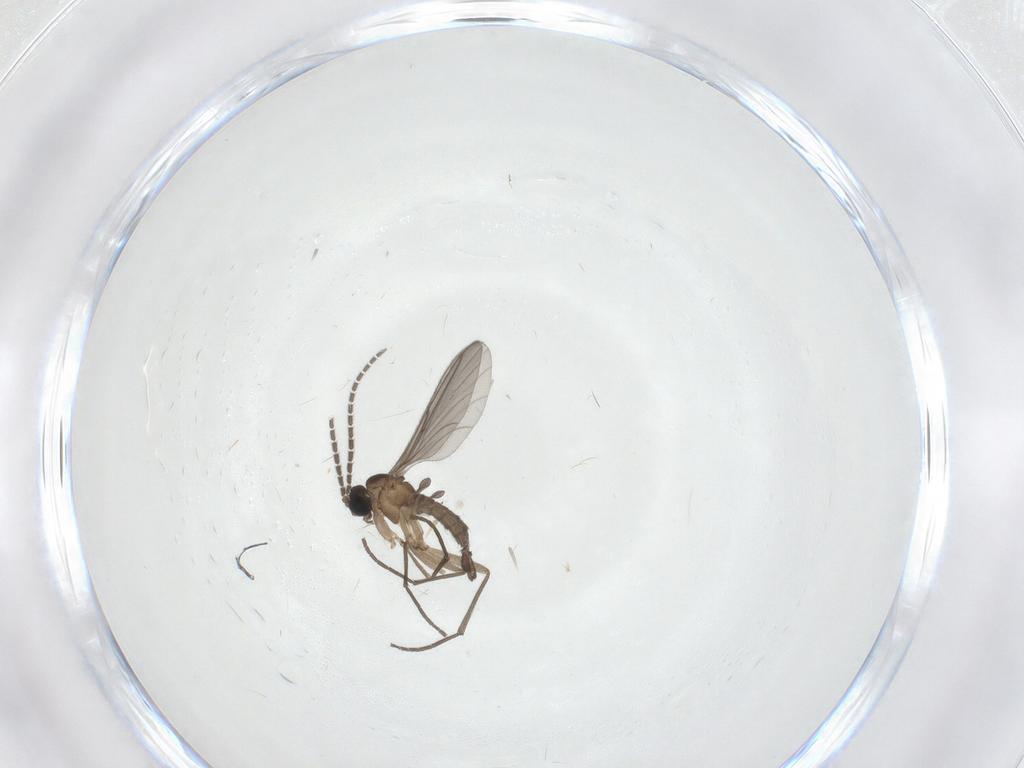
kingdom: Animalia
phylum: Arthropoda
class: Insecta
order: Diptera
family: Sciaridae
